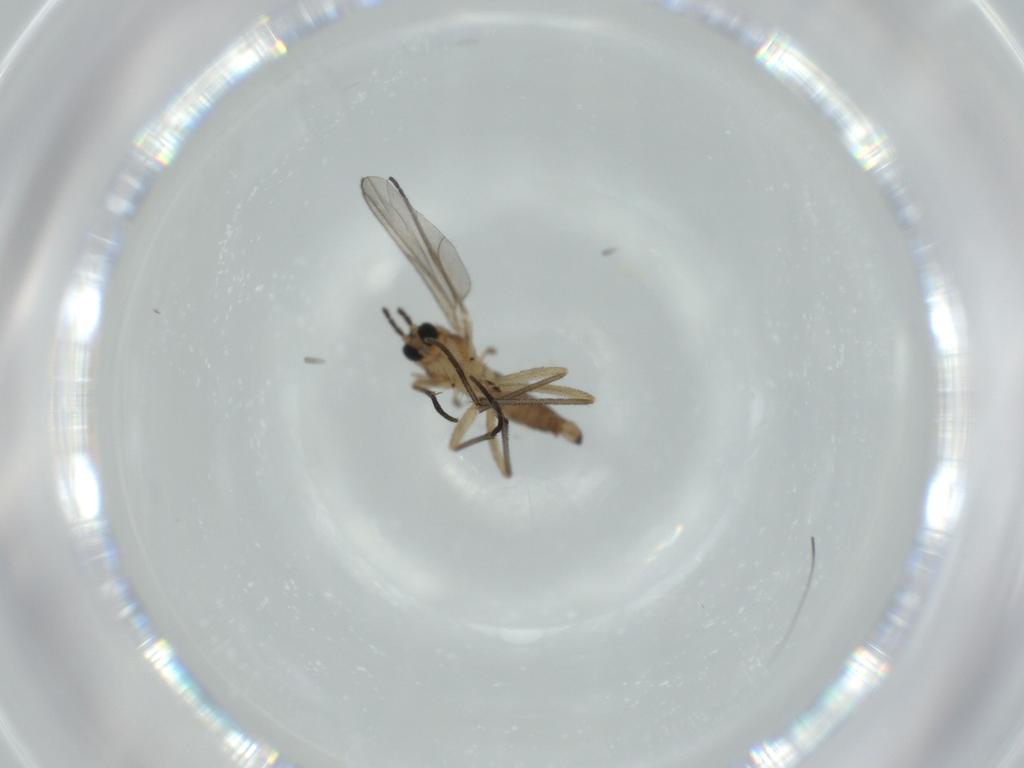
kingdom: Animalia
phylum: Arthropoda
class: Insecta
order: Diptera
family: Sciaridae
